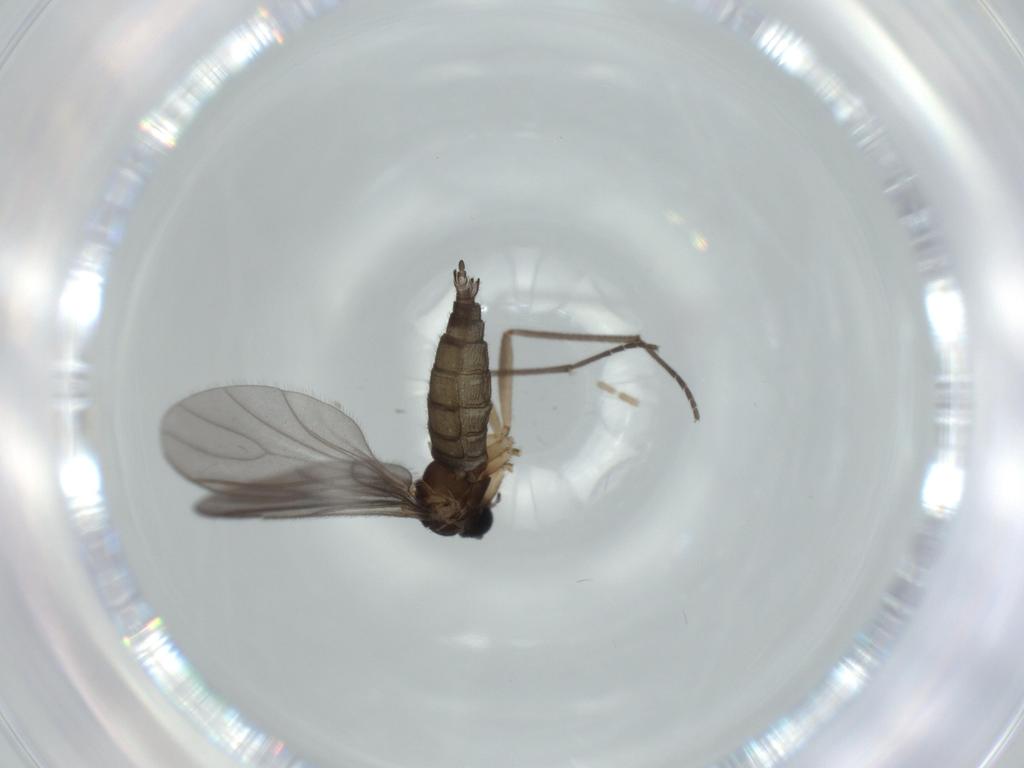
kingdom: Animalia
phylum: Arthropoda
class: Insecta
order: Diptera
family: Sciaridae
